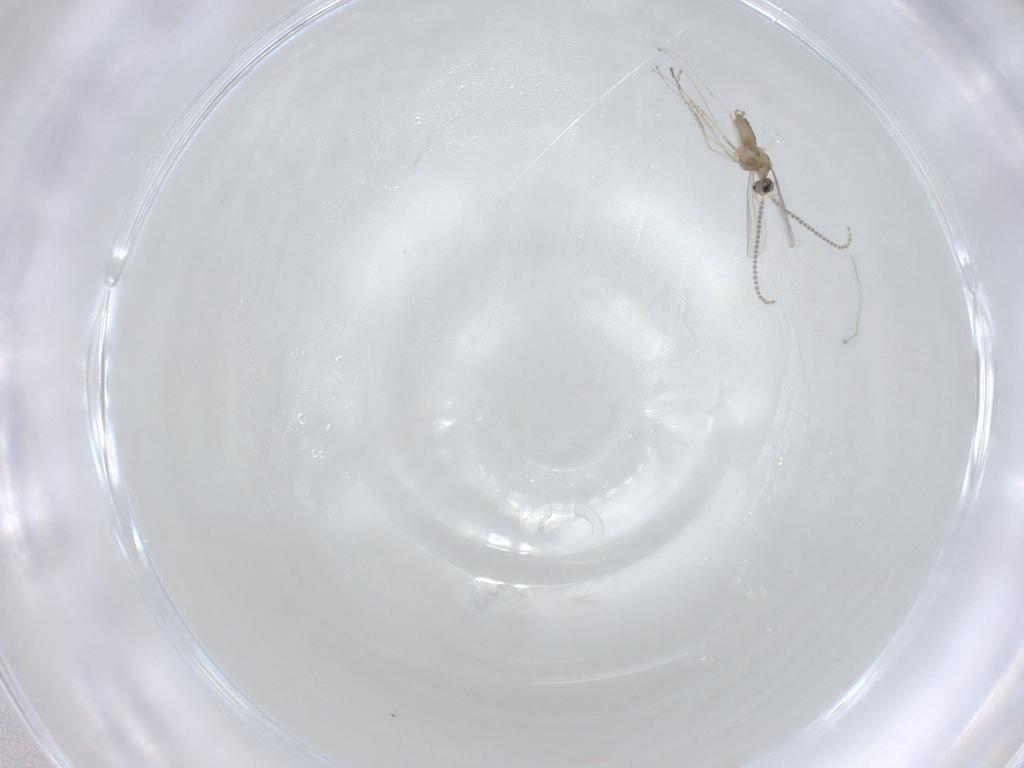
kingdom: Animalia
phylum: Arthropoda
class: Insecta
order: Diptera
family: Cecidomyiidae
